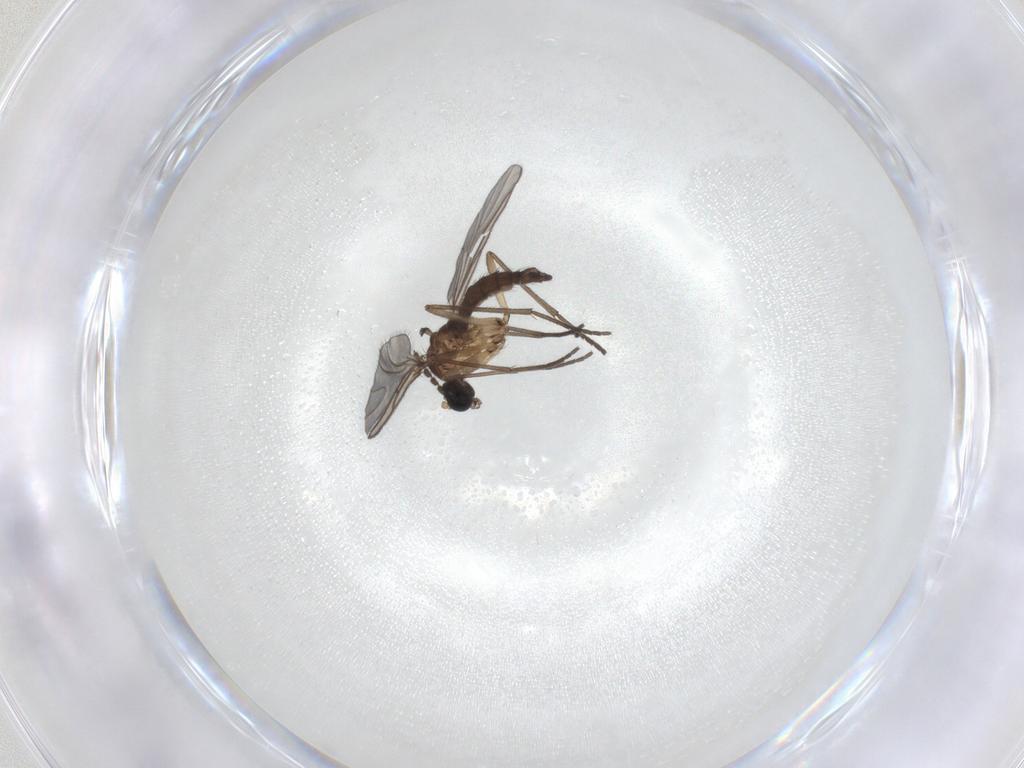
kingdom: Animalia
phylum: Arthropoda
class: Insecta
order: Diptera
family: Sciaridae
